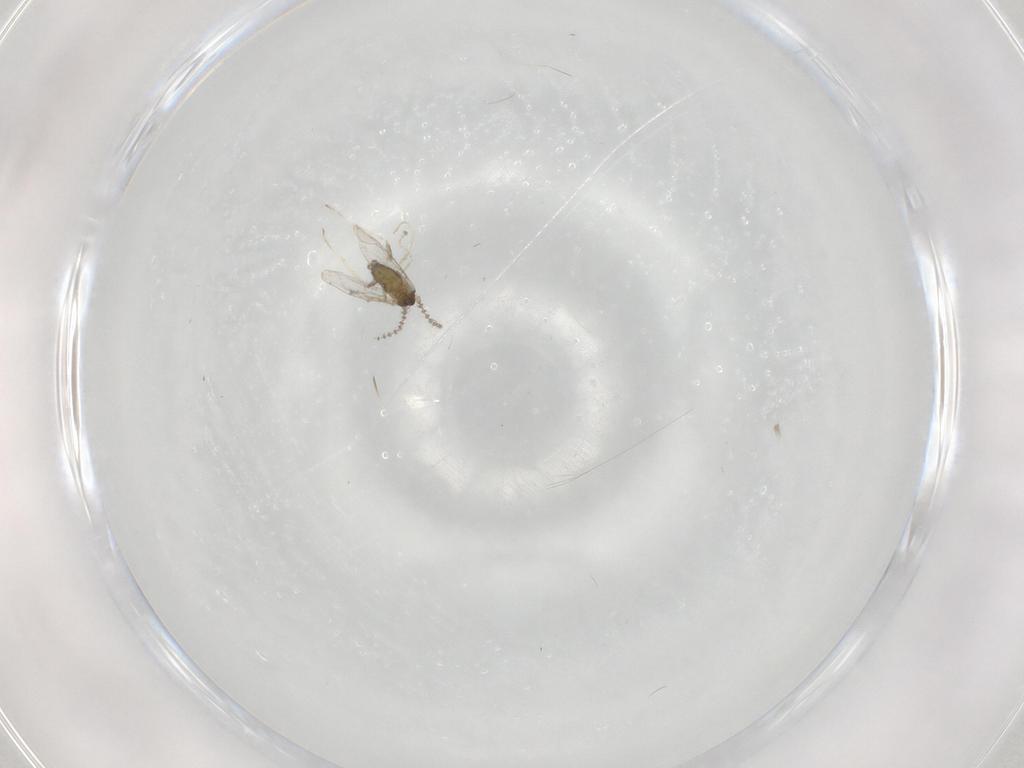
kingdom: Animalia
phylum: Arthropoda
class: Insecta
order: Diptera
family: Cecidomyiidae
